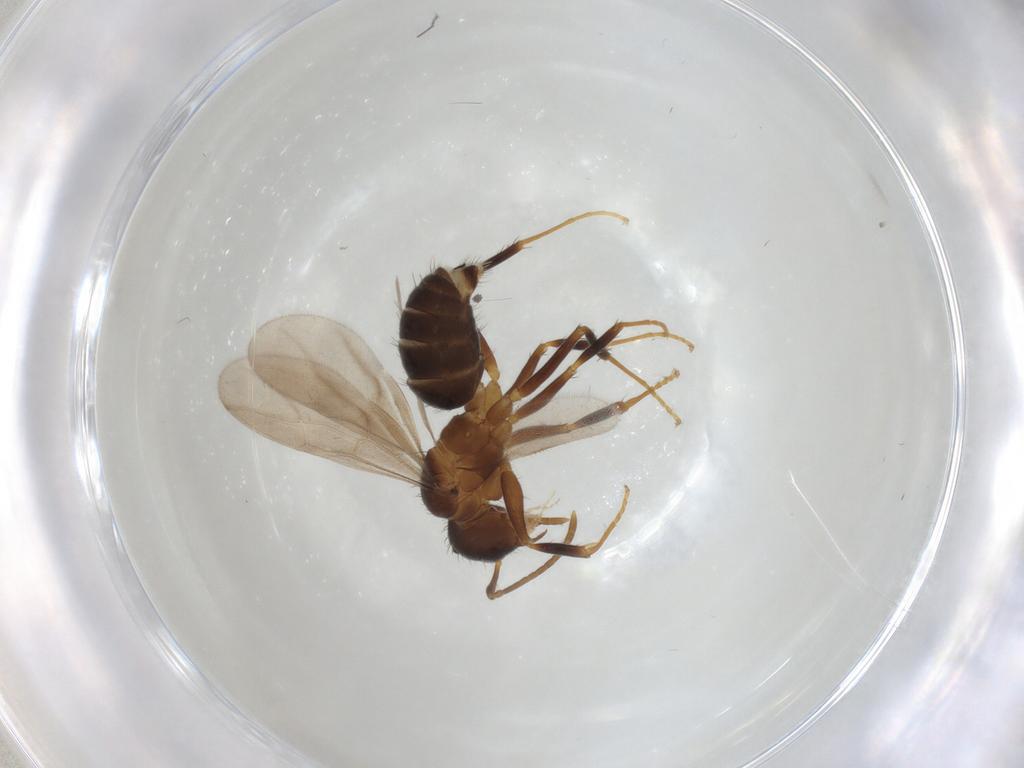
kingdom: Animalia
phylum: Arthropoda
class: Insecta
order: Hymenoptera
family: Formicidae
